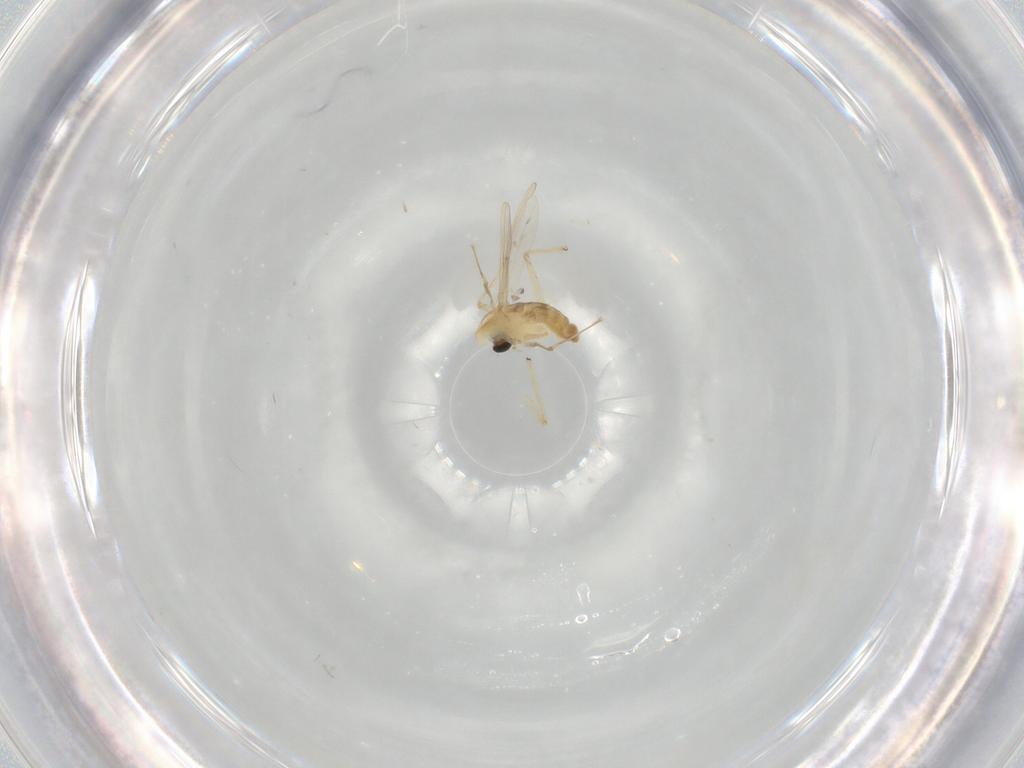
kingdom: Animalia
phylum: Arthropoda
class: Insecta
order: Diptera
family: Chironomidae
